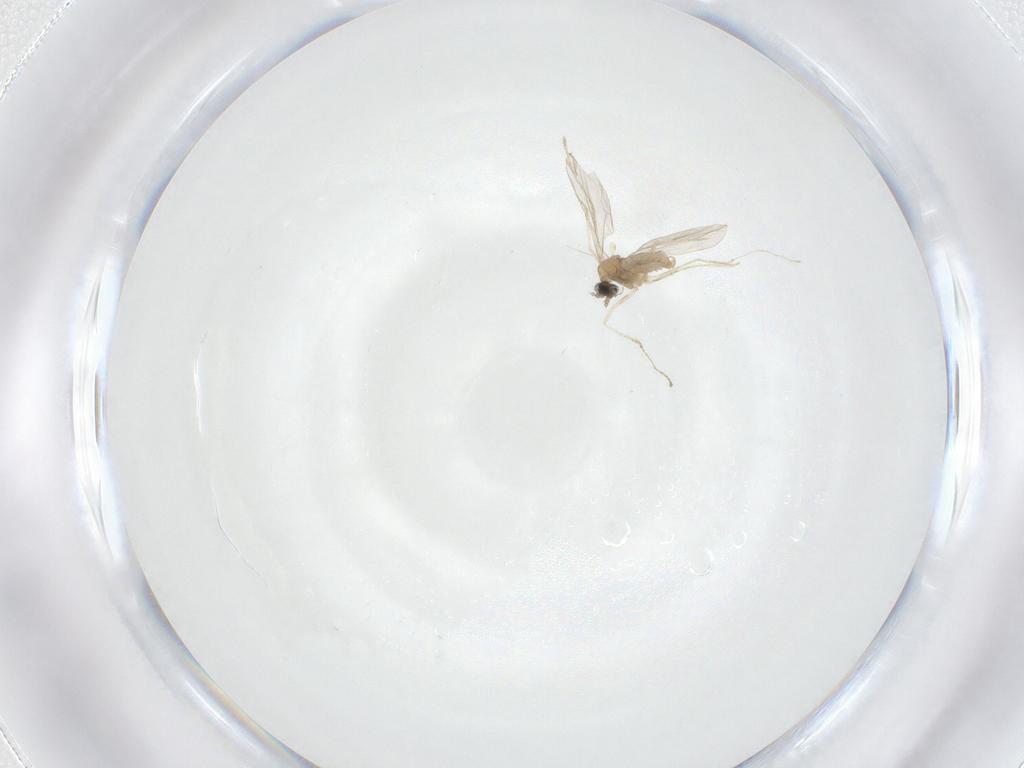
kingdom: Animalia
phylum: Arthropoda
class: Insecta
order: Diptera
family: Cecidomyiidae
